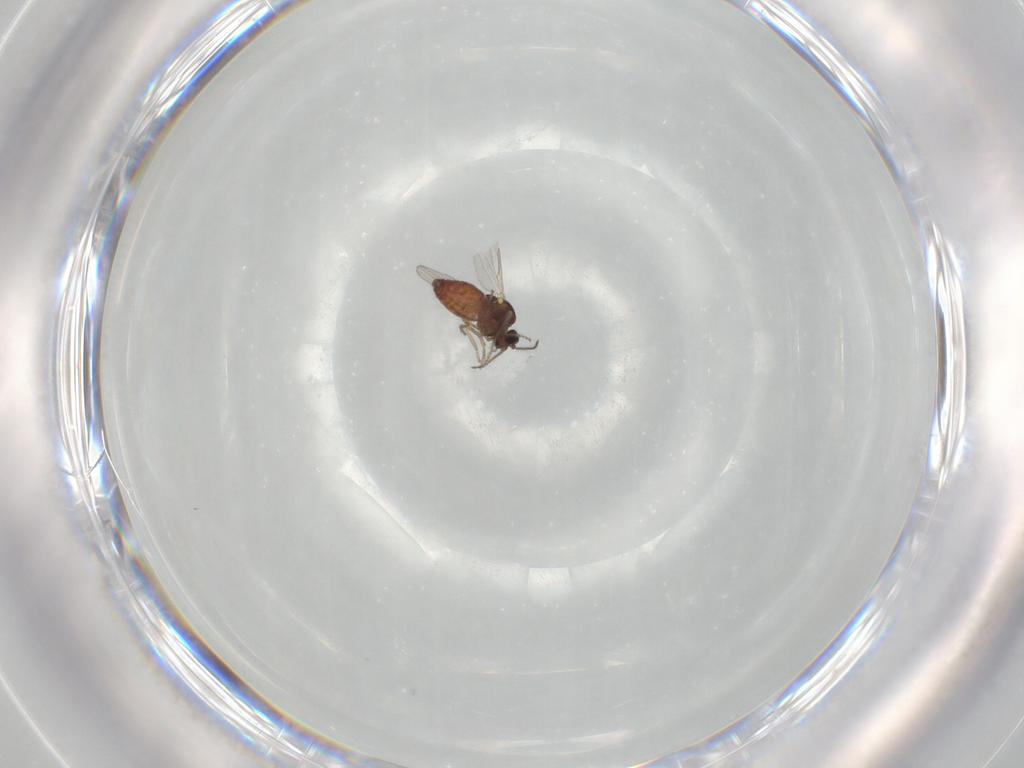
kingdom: Animalia
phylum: Arthropoda
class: Insecta
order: Diptera
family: Ceratopogonidae
